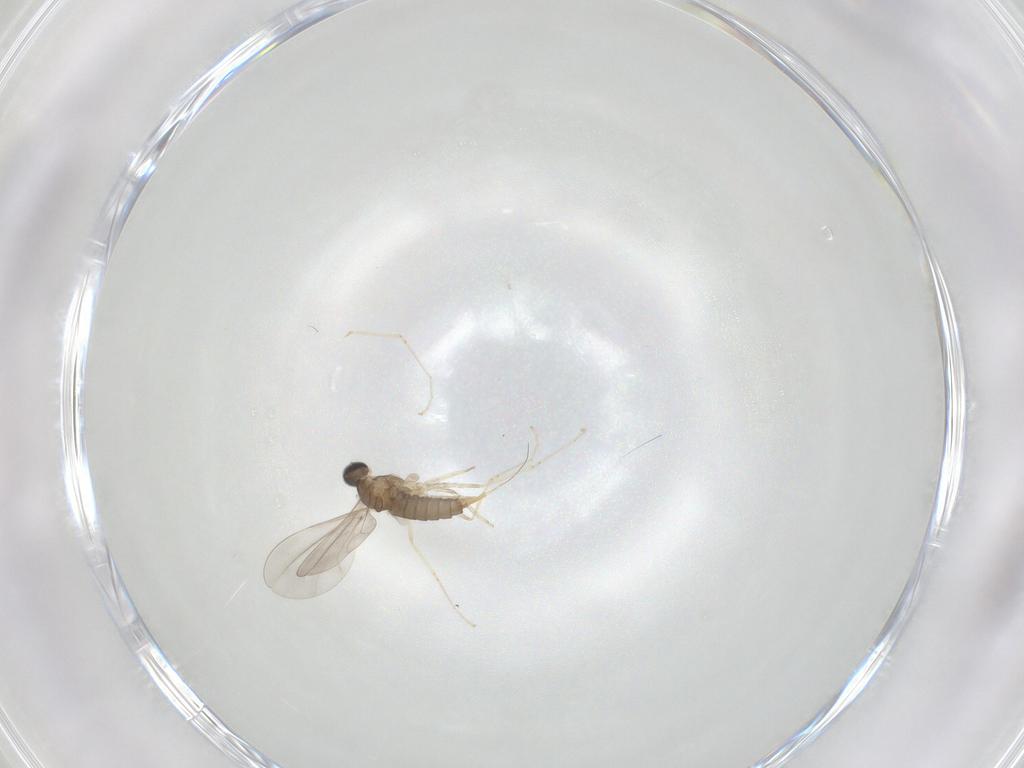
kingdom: Animalia
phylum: Arthropoda
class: Insecta
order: Diptera
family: Cecidomyiidae
